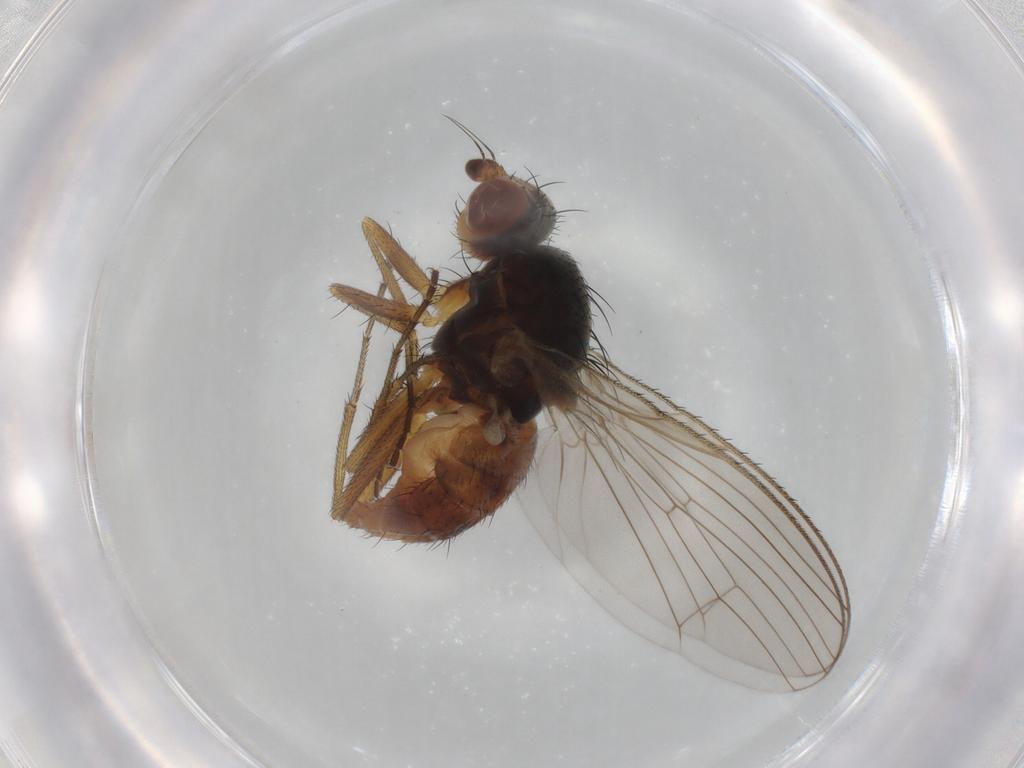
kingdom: Animalia
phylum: Arthropoda
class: Insecta
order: Diptera
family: Heleomyzidae
